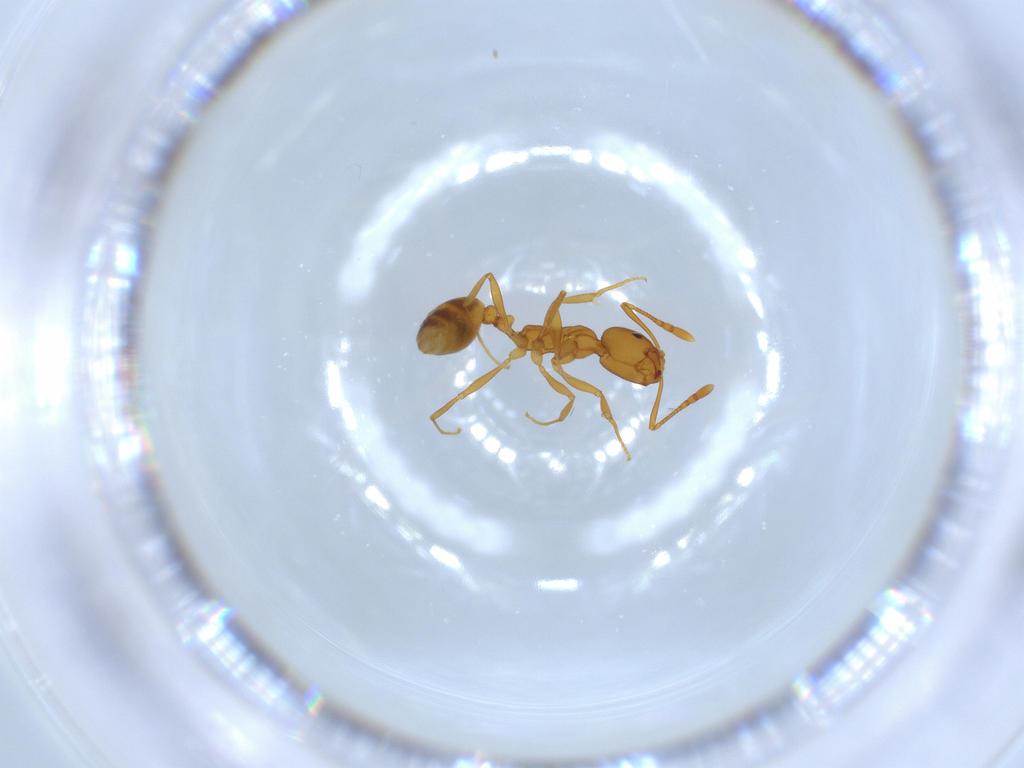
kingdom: Animalia
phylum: Arthropoda
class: Insecta
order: Hymenoptera
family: Formicidae
